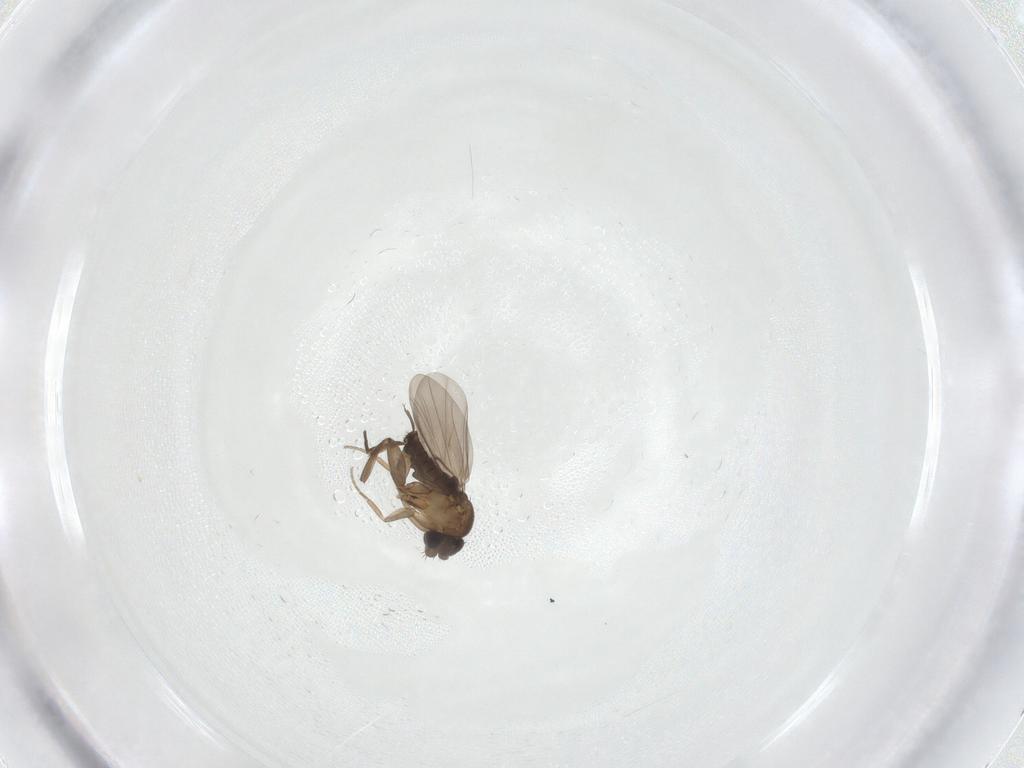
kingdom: Animalia
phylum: Arthropoda
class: Insecta
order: Diptera
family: Phoridae
